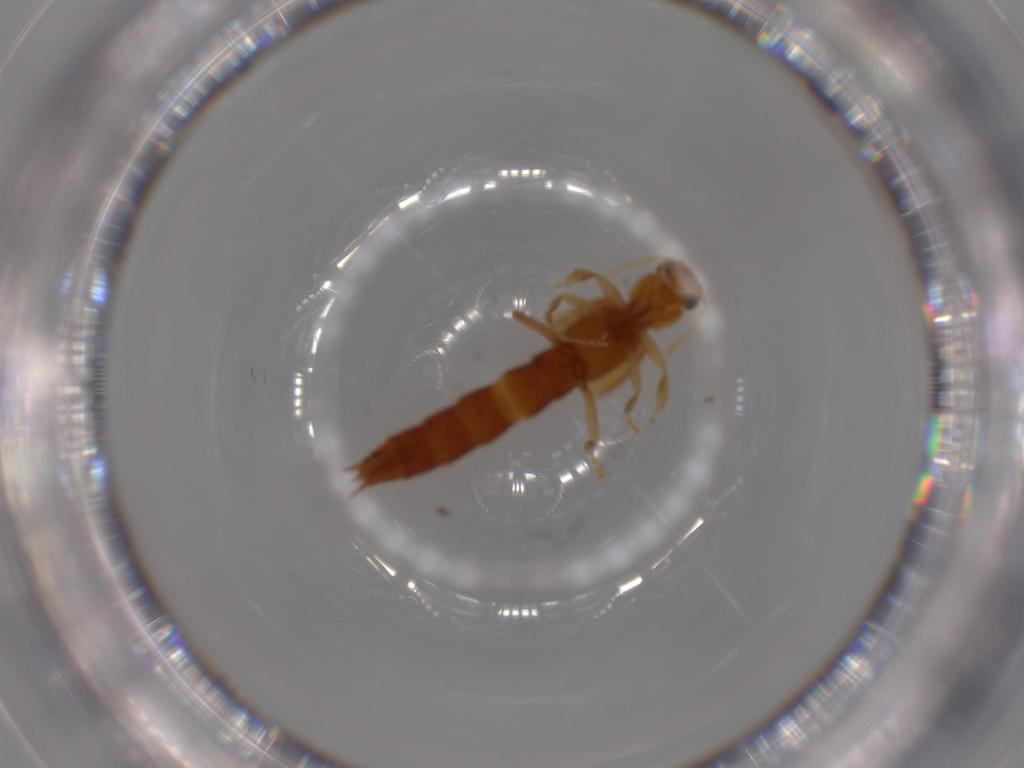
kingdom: Animalia
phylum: Arthropoda
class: Insecta
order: Coleoptera
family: Staphylinidae
